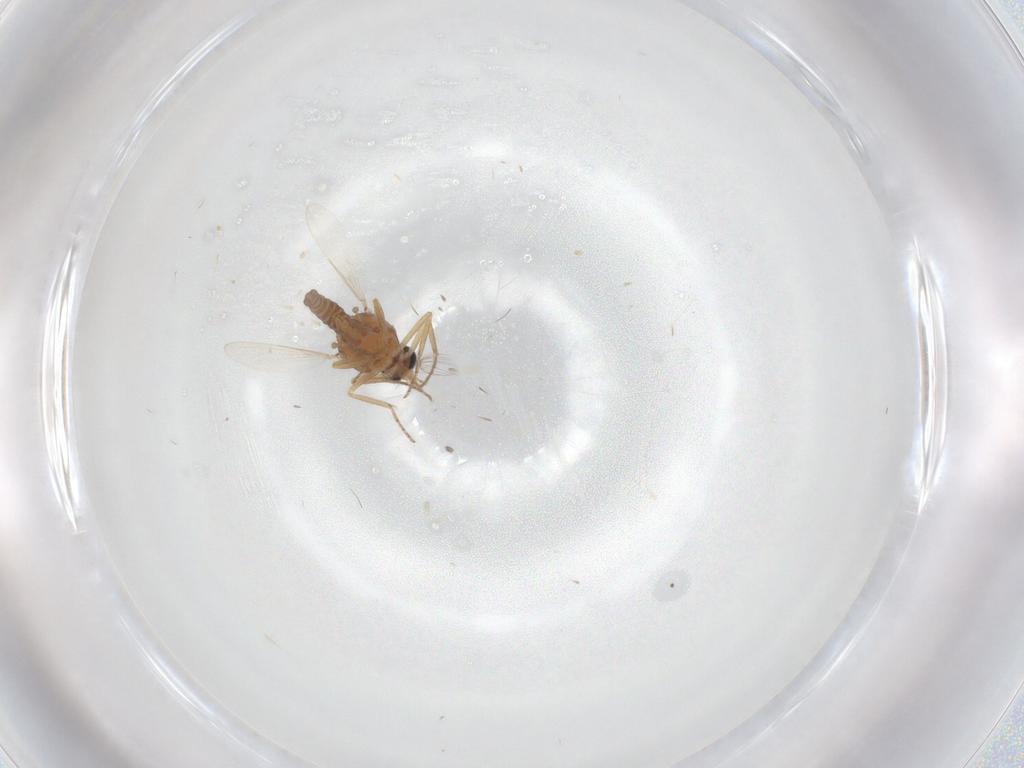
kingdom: Animalia
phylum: Arthropoda
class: Insecta
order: Diptera
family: Ceratopogonidae
